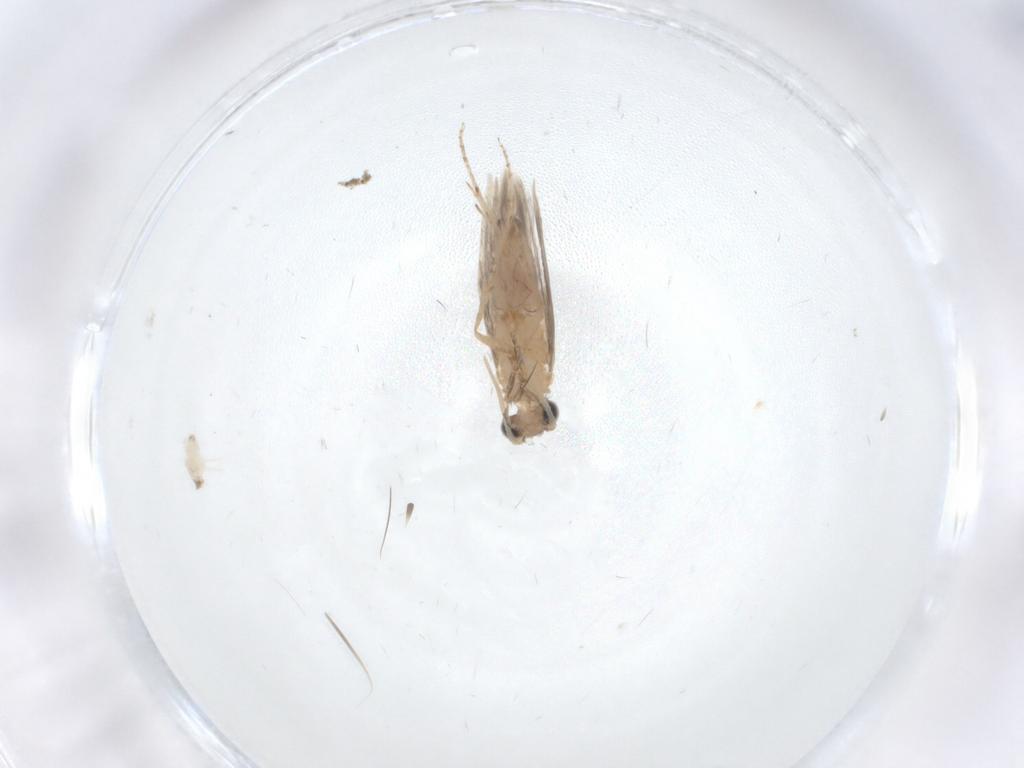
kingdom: Animalia
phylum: Arthropoda
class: Insecta
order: Trichoptera
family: Hydroptilidae
